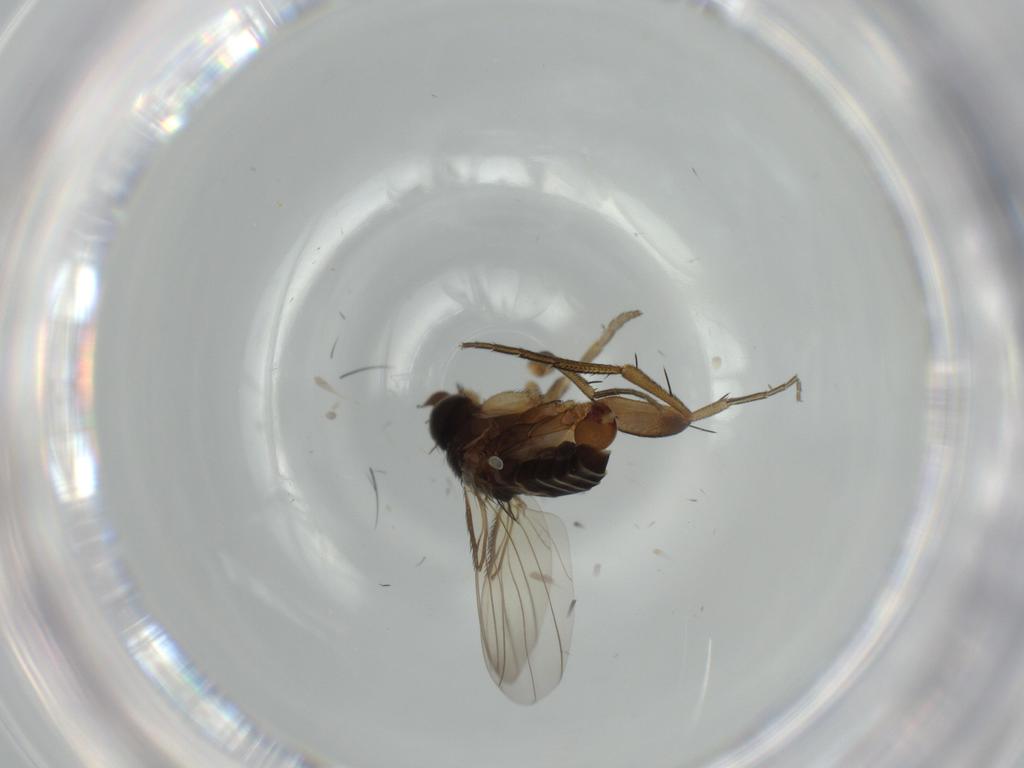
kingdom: Animalia
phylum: Arthropoda
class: Insecta
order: Diptera
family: Phoridae
